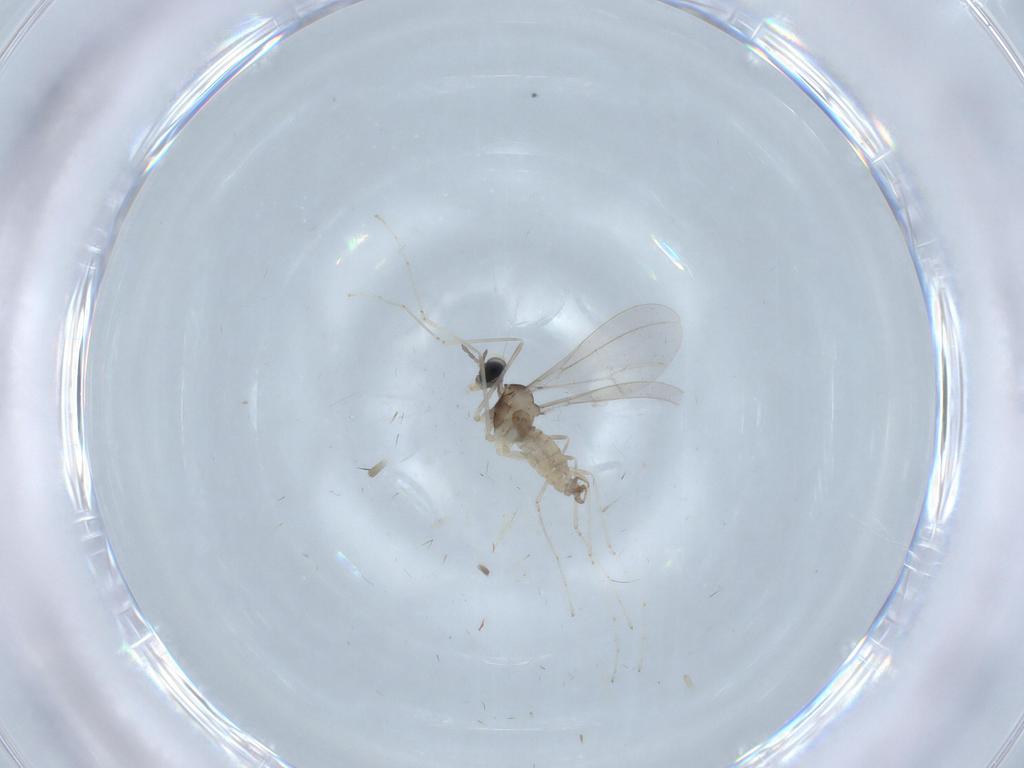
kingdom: Animalia
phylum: Arthropoda
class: Insecta
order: Diptera
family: Cecidomyiidae
